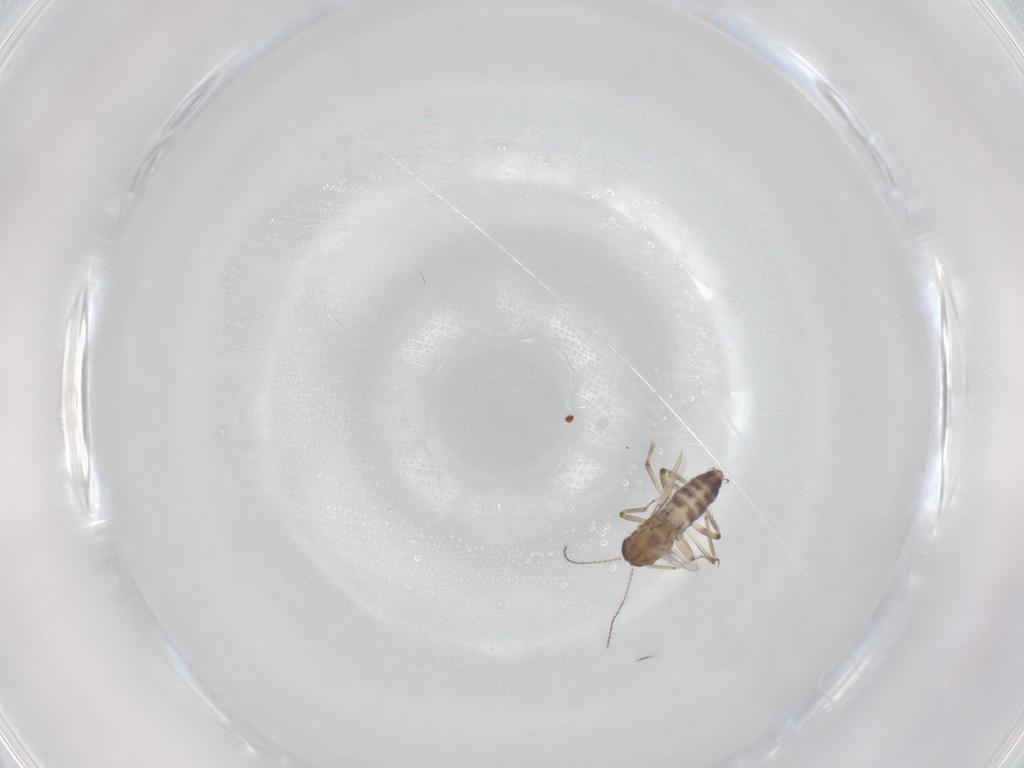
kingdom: Animalia
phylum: Arthropoda
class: Insecta
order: Diptera
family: Ceratopogonidae
